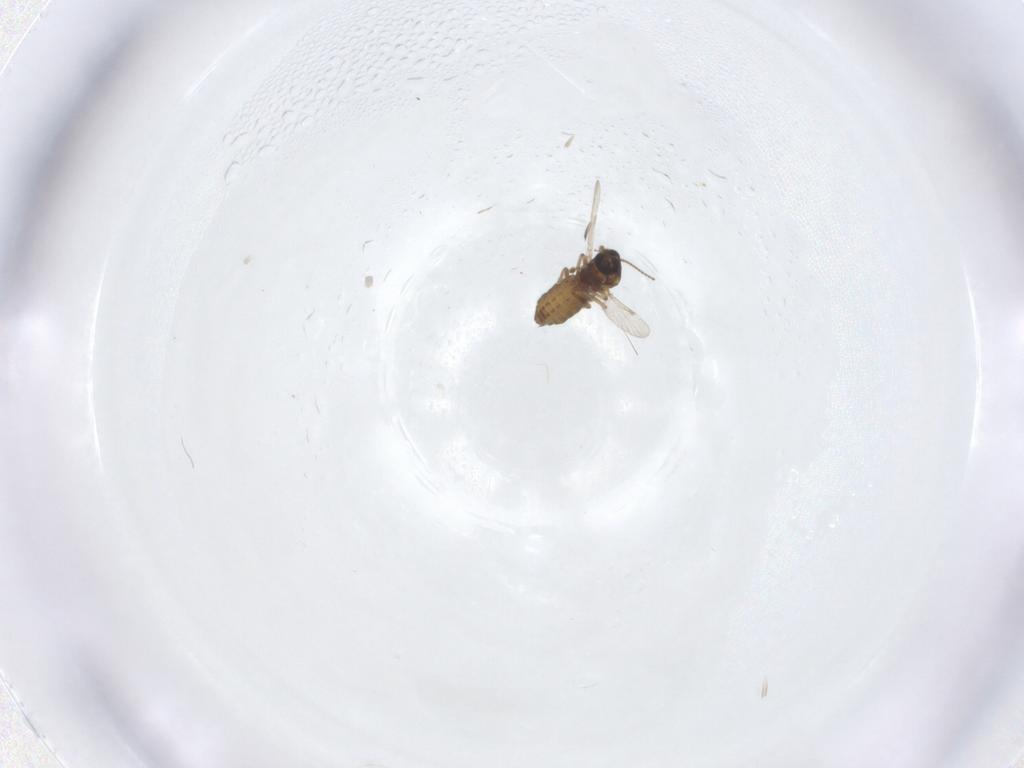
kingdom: Animalia
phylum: Arthropoda
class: Insecta
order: Diptera
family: Ceratopogonidae
